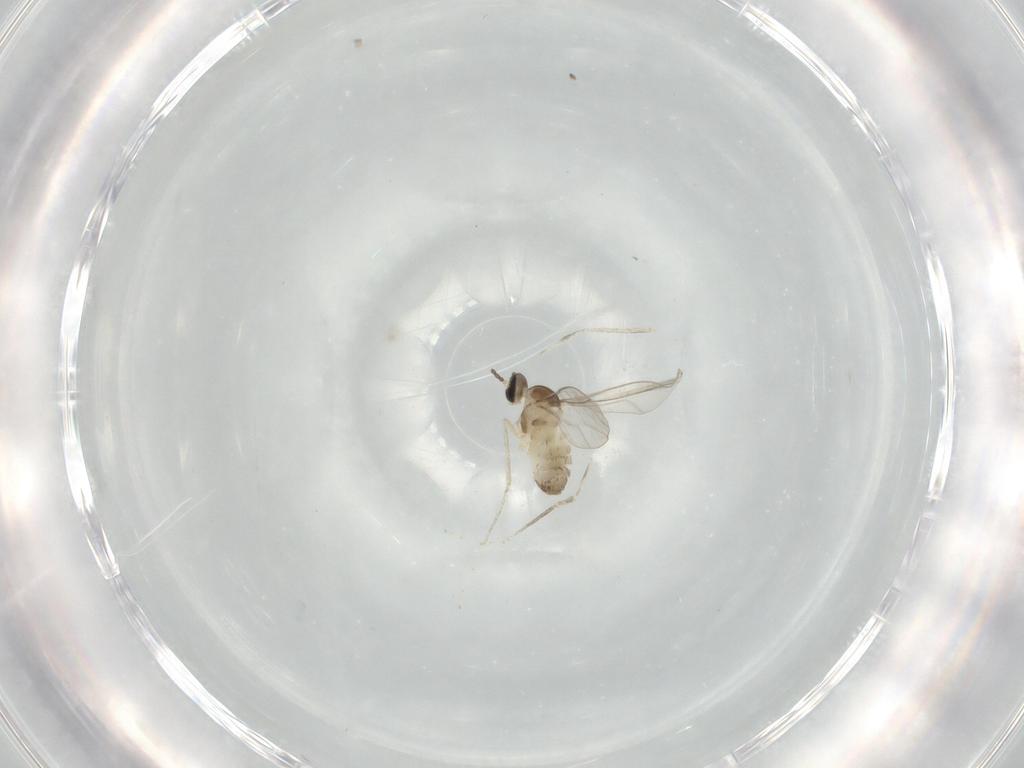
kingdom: Animalia
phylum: Arthropoda
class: Insecta
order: Diptera
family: Cecidomyiidae
